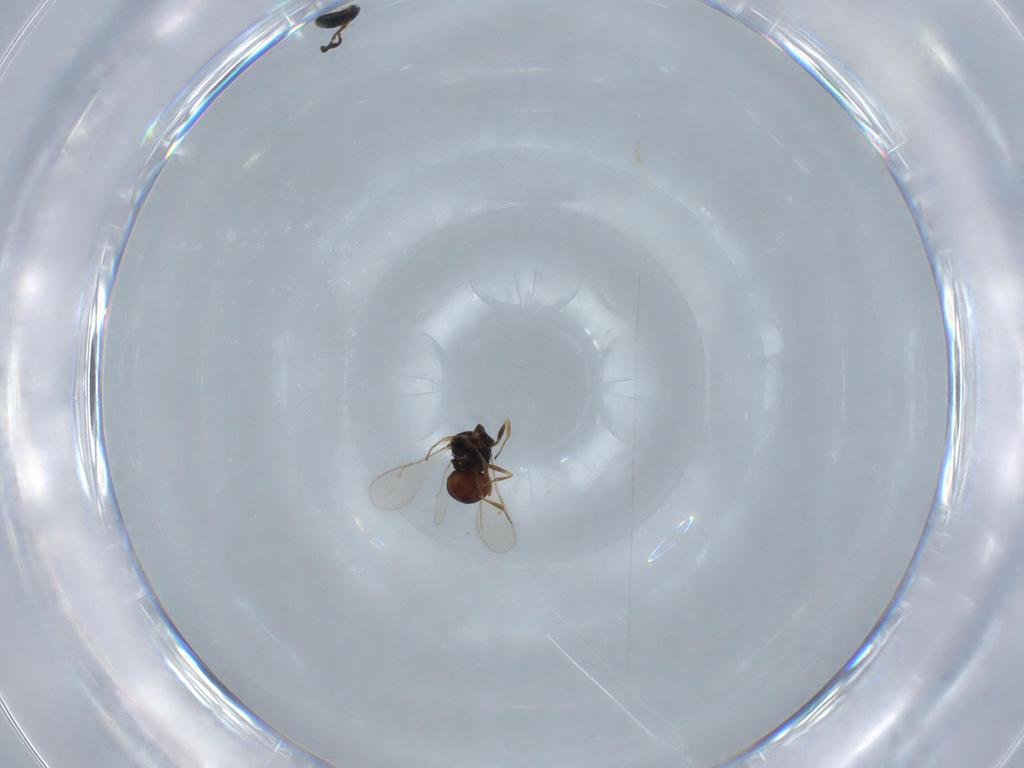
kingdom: Animalia
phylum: Arthropoda
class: Insecta
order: Hymenoptera
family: Scelionidae
